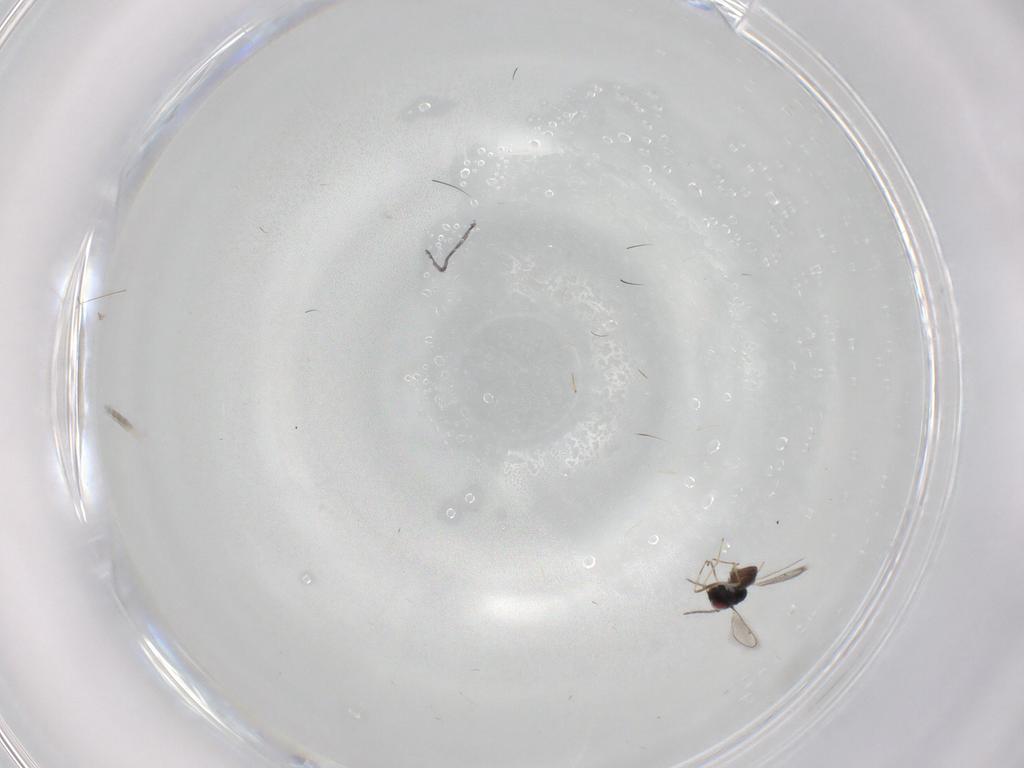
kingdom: Animalia
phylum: Arthropoda
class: Insecta
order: Hymenoptera
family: Eulophidae
